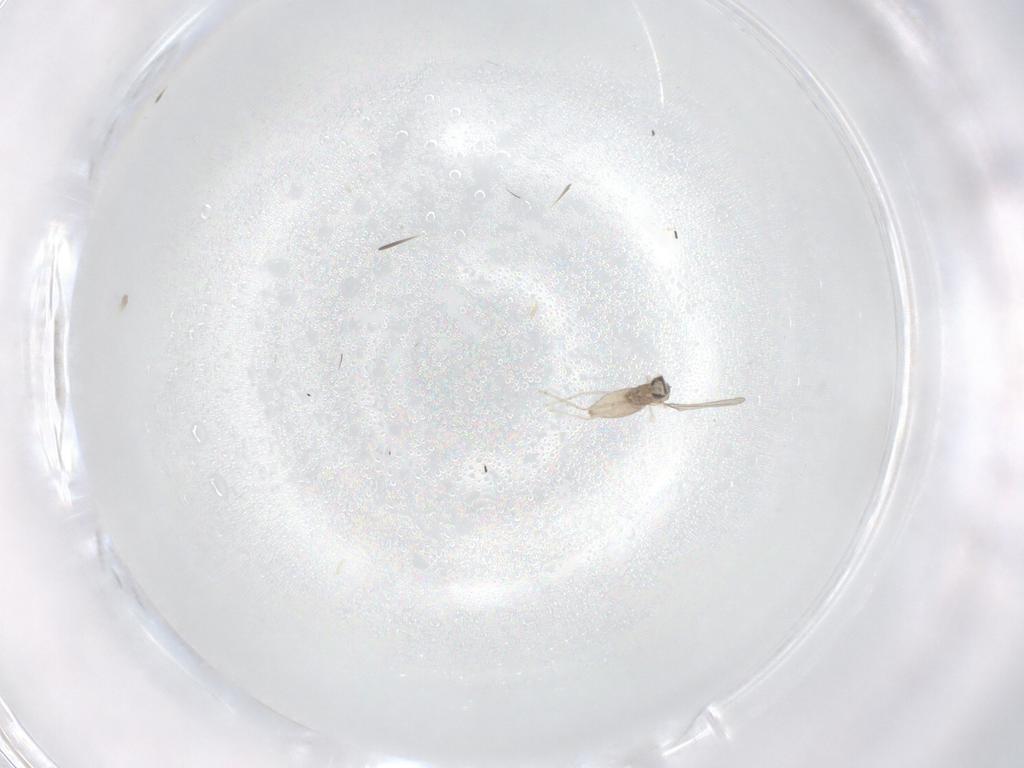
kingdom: Animalia
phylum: Arthropoda
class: Insecta
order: Diptera
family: Cecidomyiidae
